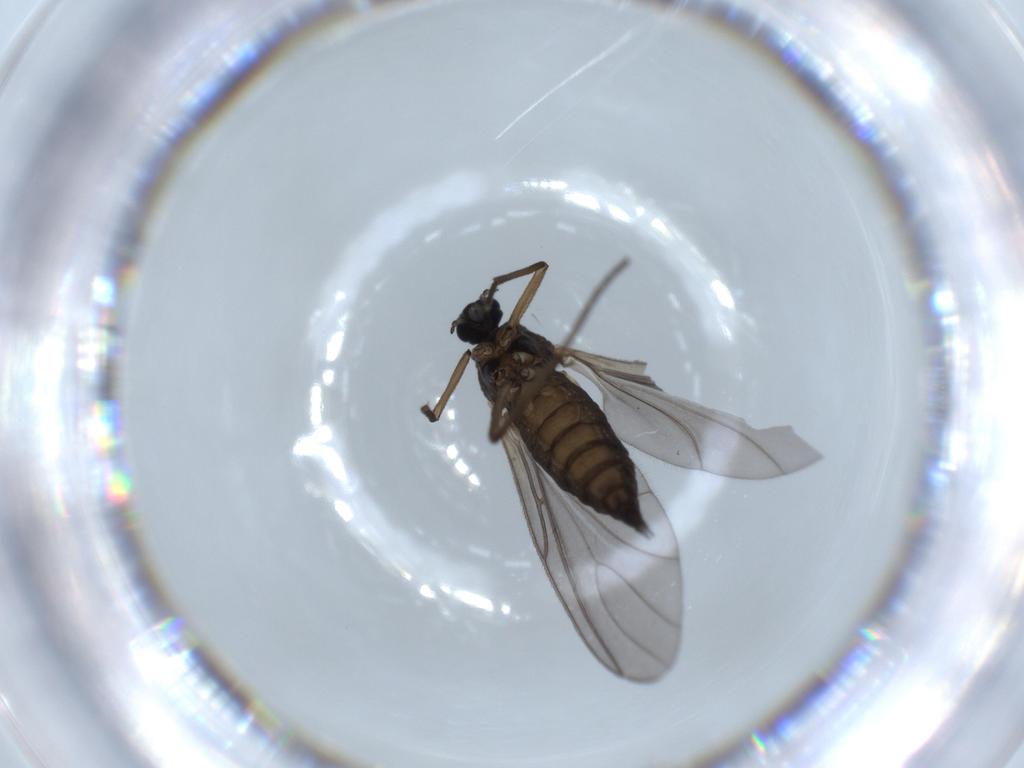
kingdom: Animalia
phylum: Arthropoda
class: Insecta
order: Diptera
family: Sciaridae
